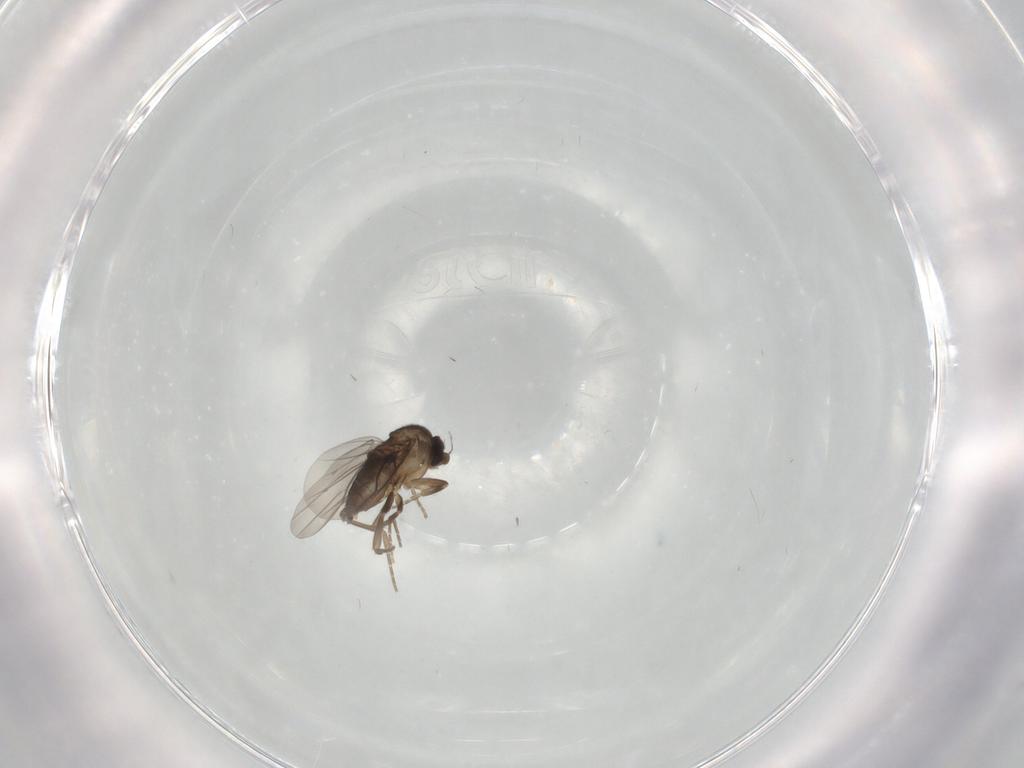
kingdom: Animalia
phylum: Arthropoda
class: Insecta
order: Diptera
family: Phoridae
